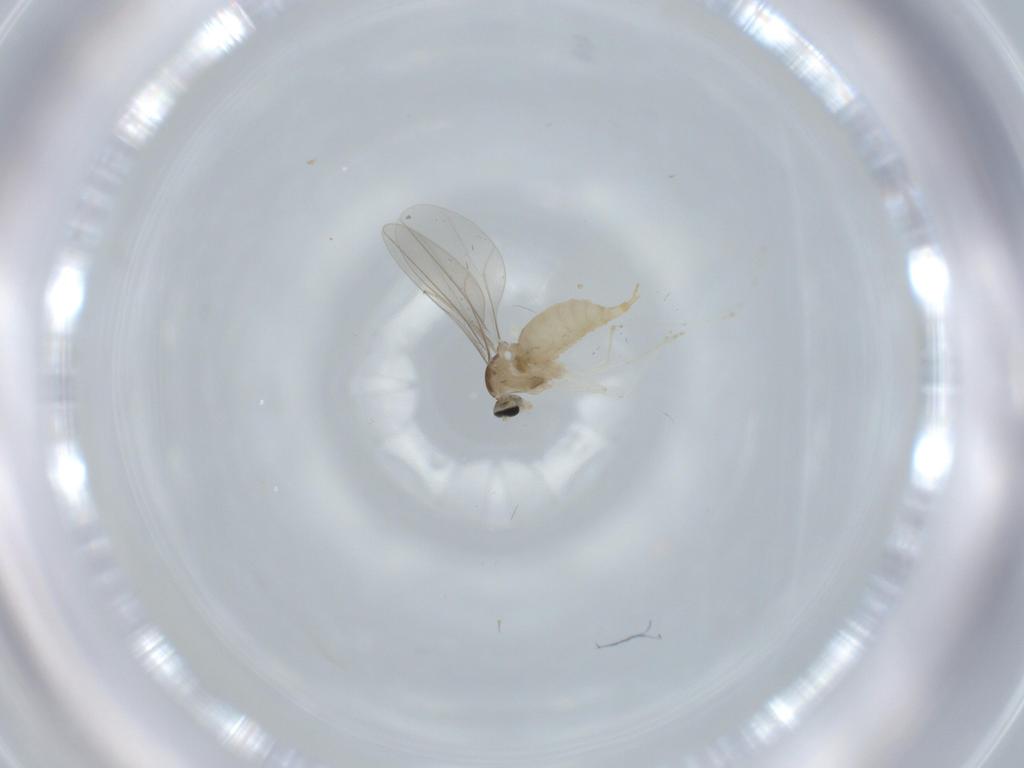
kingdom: Animalia
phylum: Arthropoda
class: Insecta
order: Diptera
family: Cecidomyiidae
